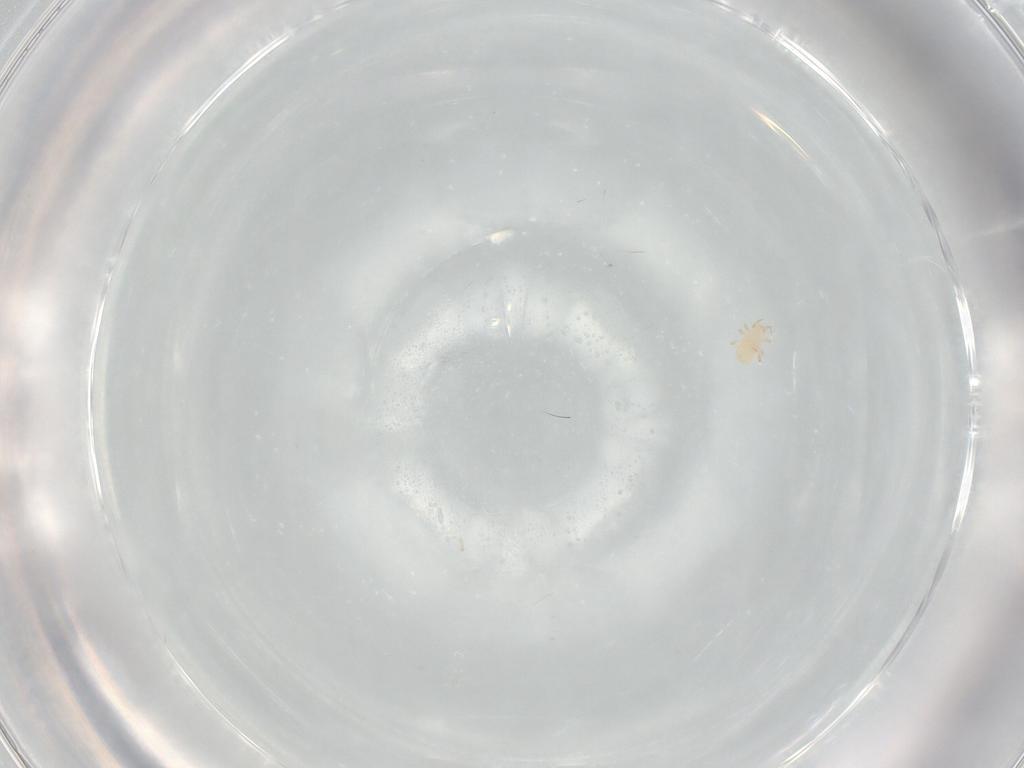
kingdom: Animalia
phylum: Arthropoda
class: Arachnida
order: Mesostigmata
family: Phytoseiidae
